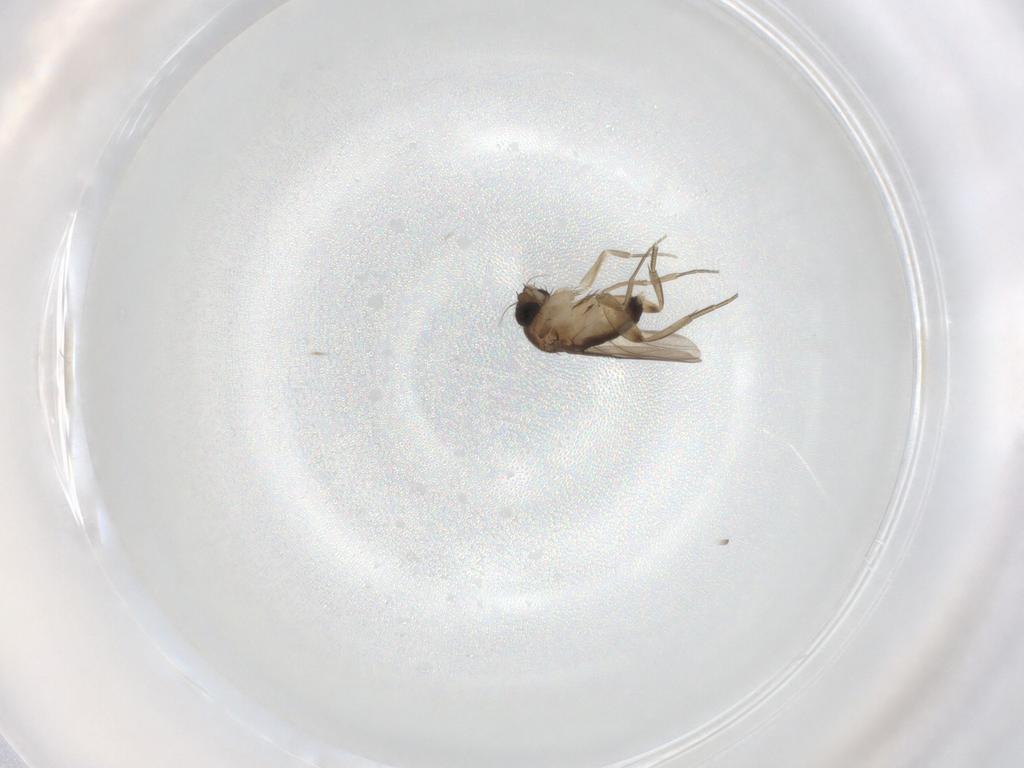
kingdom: Animalia
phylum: Arthropoda
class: Insecta
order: Diptera
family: Phoridae
